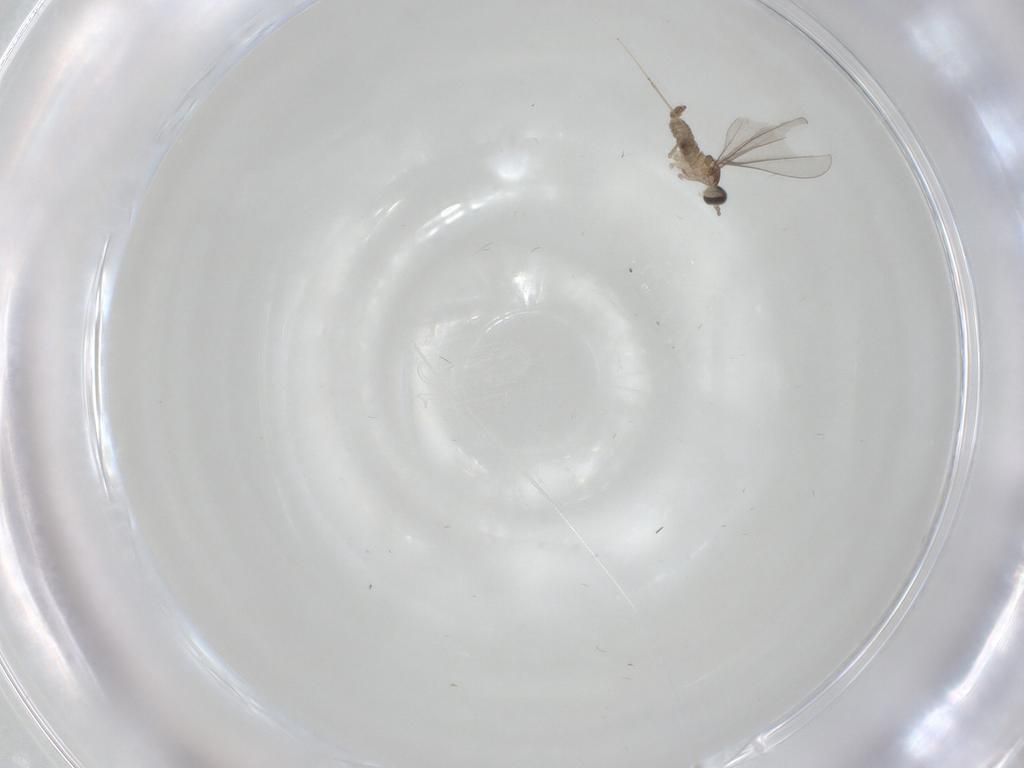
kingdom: Animalia
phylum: Arthropoda
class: Insecta
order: Diptera
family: Cecidomyiidae
